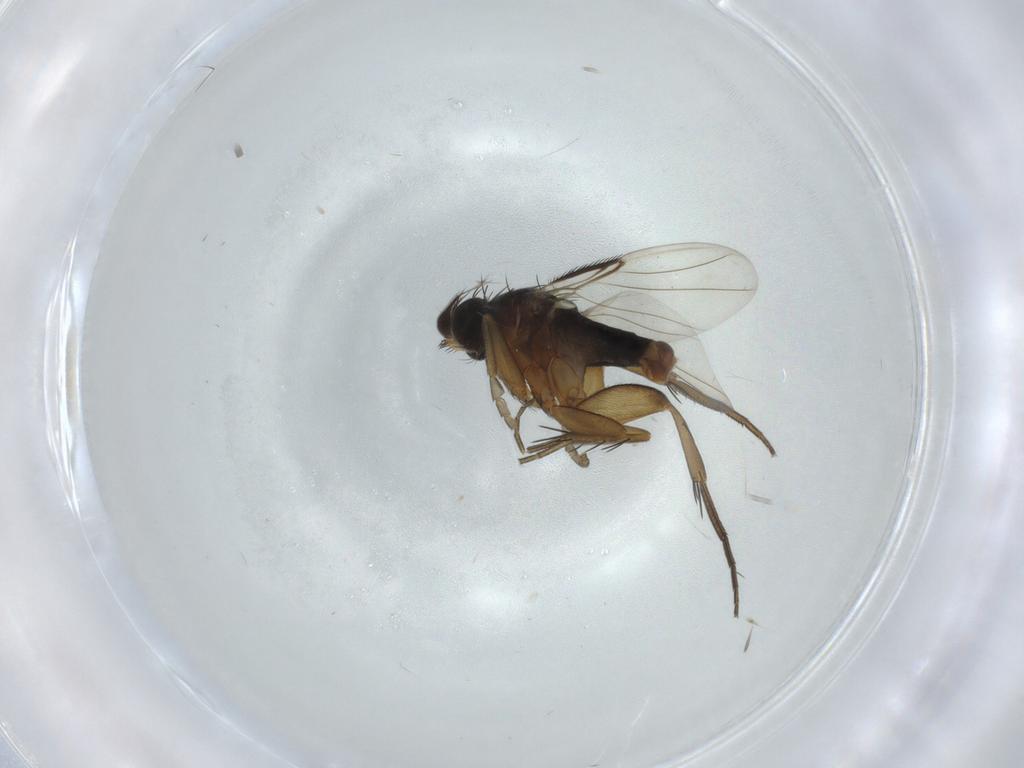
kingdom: Animalia
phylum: Arthropoda
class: Insecta
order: Diptera
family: Phoridae
